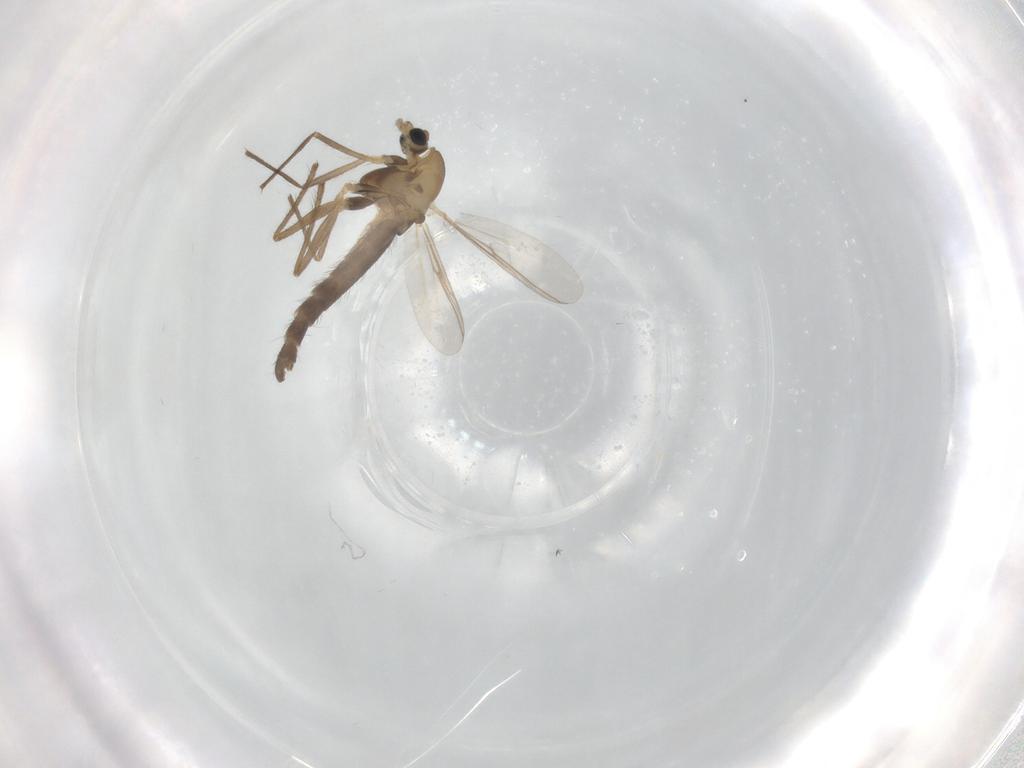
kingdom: Animalia
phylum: Arthropoda
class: Insecta
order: Diptera
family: Chironomidae
